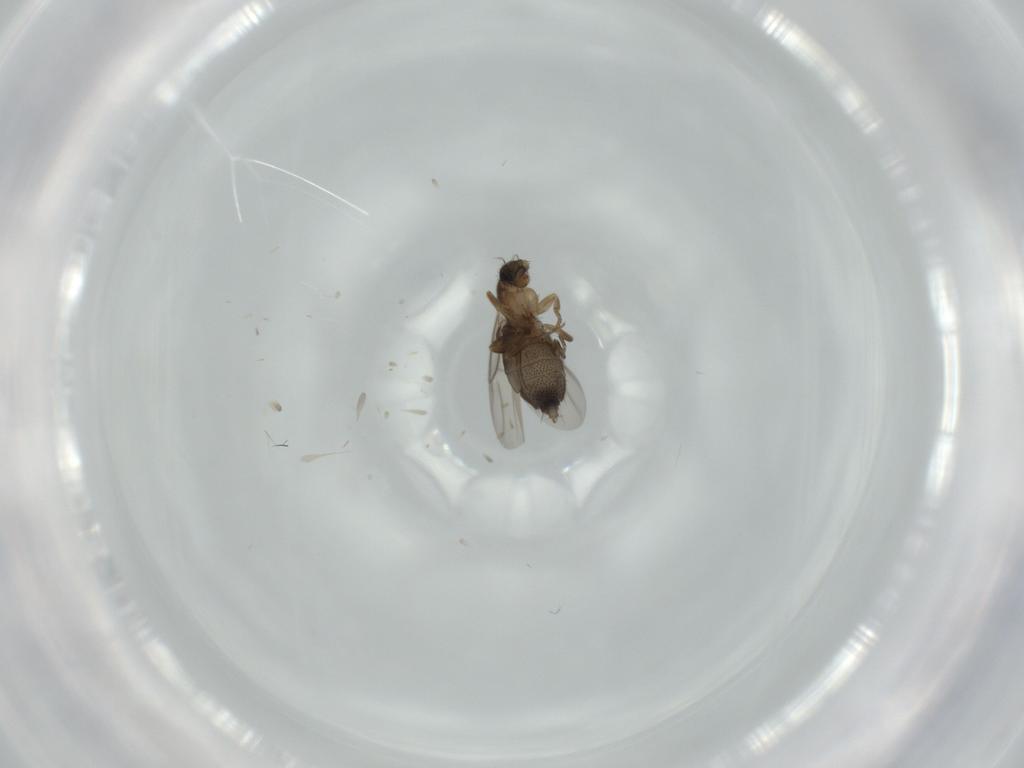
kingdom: Animalia
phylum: Arthropoda
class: Insecta
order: Diptera
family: Phoridae
